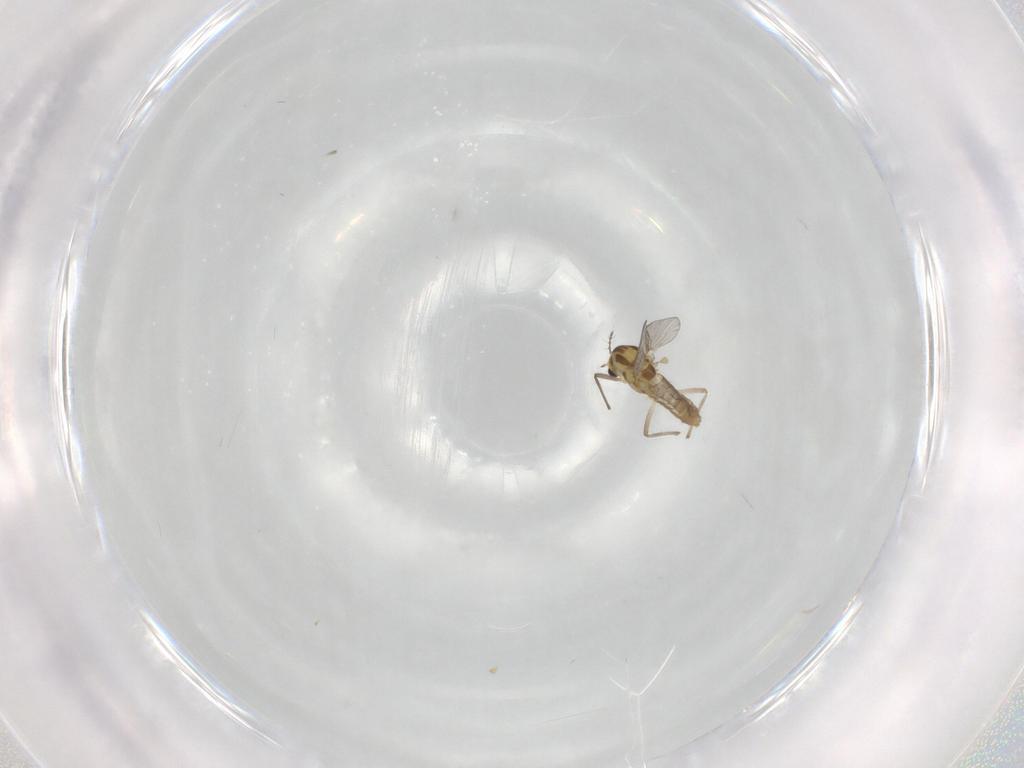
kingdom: Animalia
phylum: Arthropoda
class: Insecta
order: Diptera
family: Chironomidae
